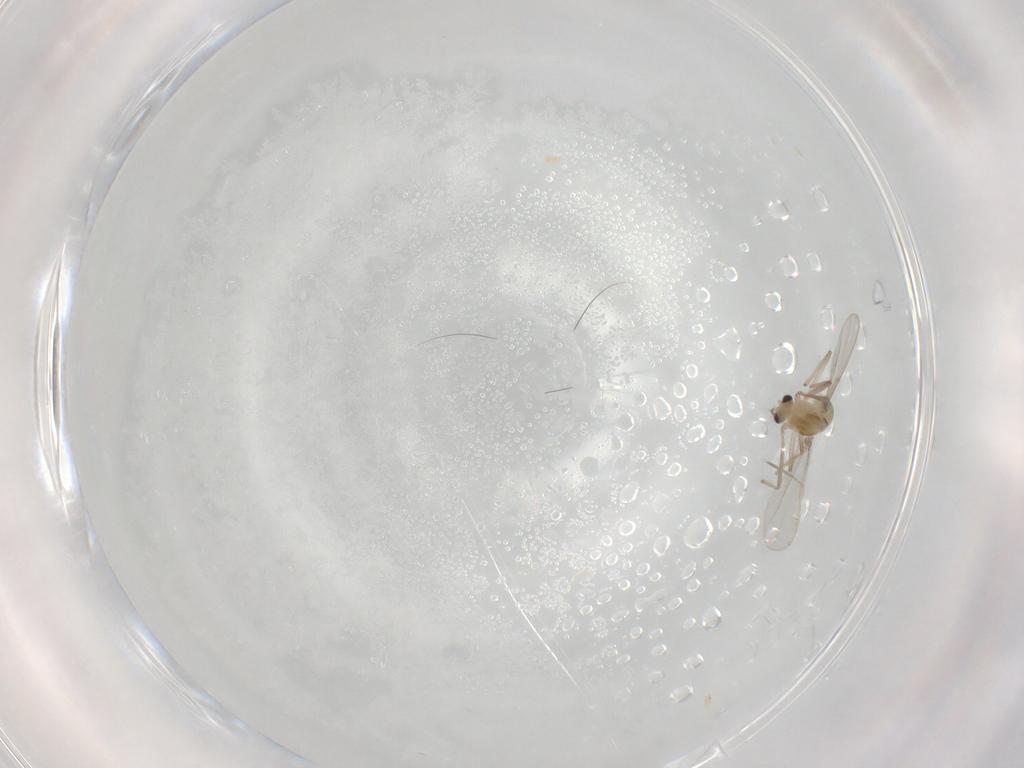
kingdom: Animalia
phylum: Arthropoda
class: Insecta
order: Diptera
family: Chironomidae
